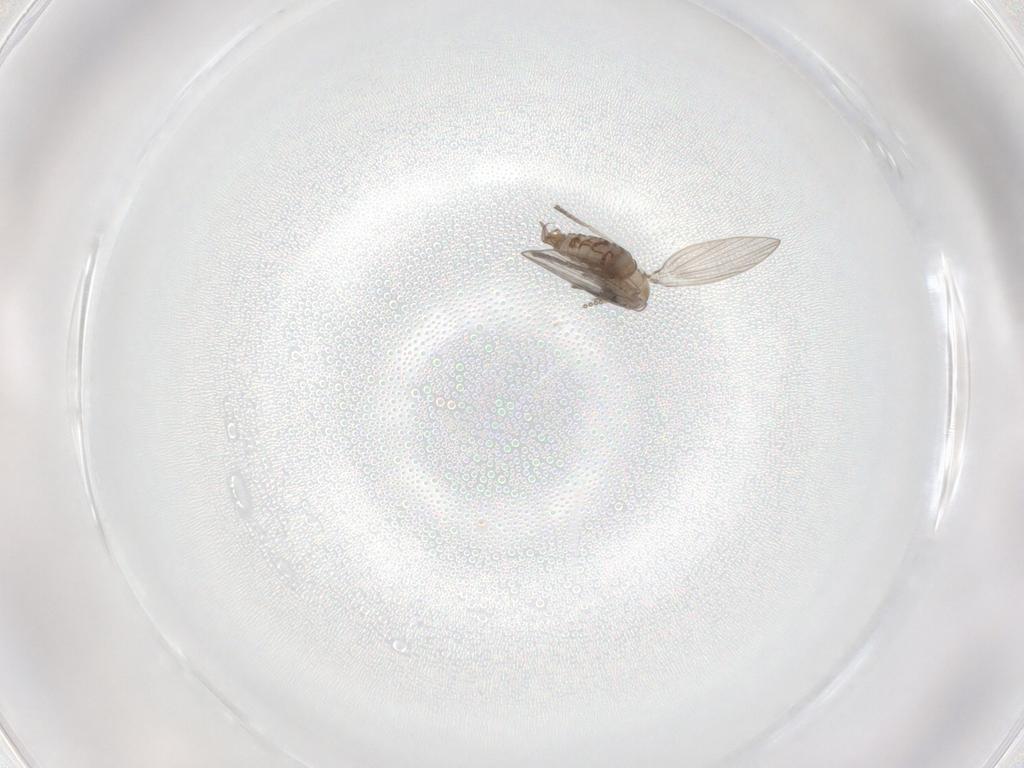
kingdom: Animalia
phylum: Arthropoda
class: Insecta
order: Diptera
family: Psychodidae
